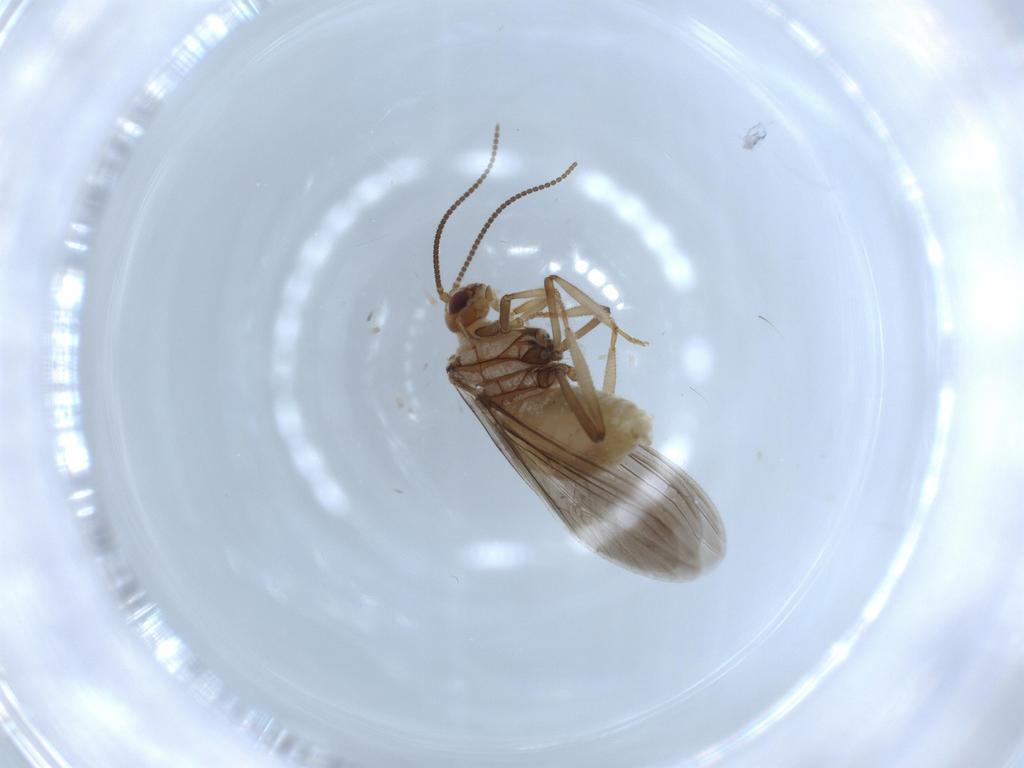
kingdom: Animalia
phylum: Arthropoda
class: Insecta
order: Neuroptera
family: Coniopterygidae
